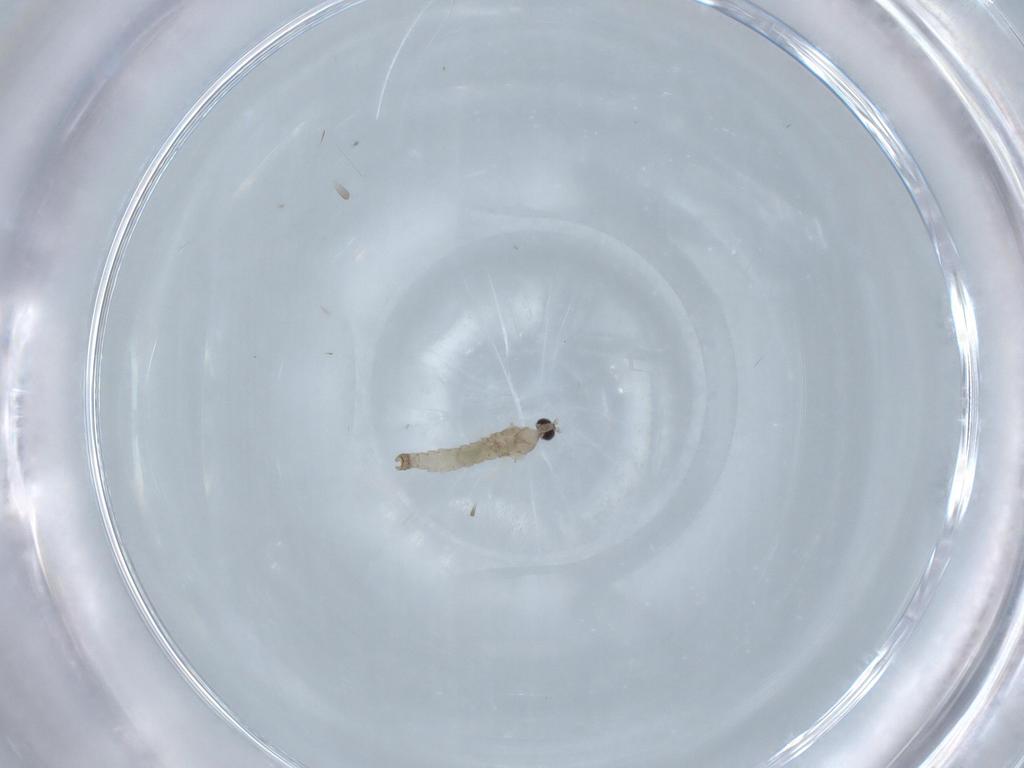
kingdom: Animalia
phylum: Arthropoda
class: Insecta
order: Diptera
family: Cecidomyiidae
